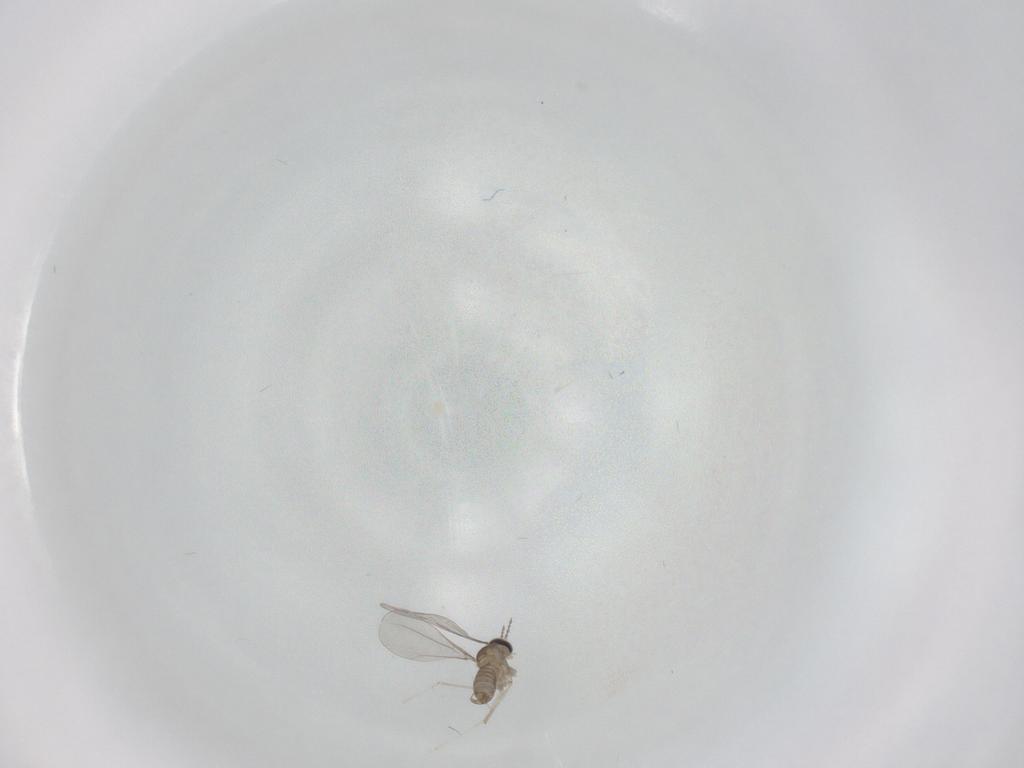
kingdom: Animalia
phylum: Arthropoda
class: Insecta
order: Diptera
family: Cecidomyiidae
